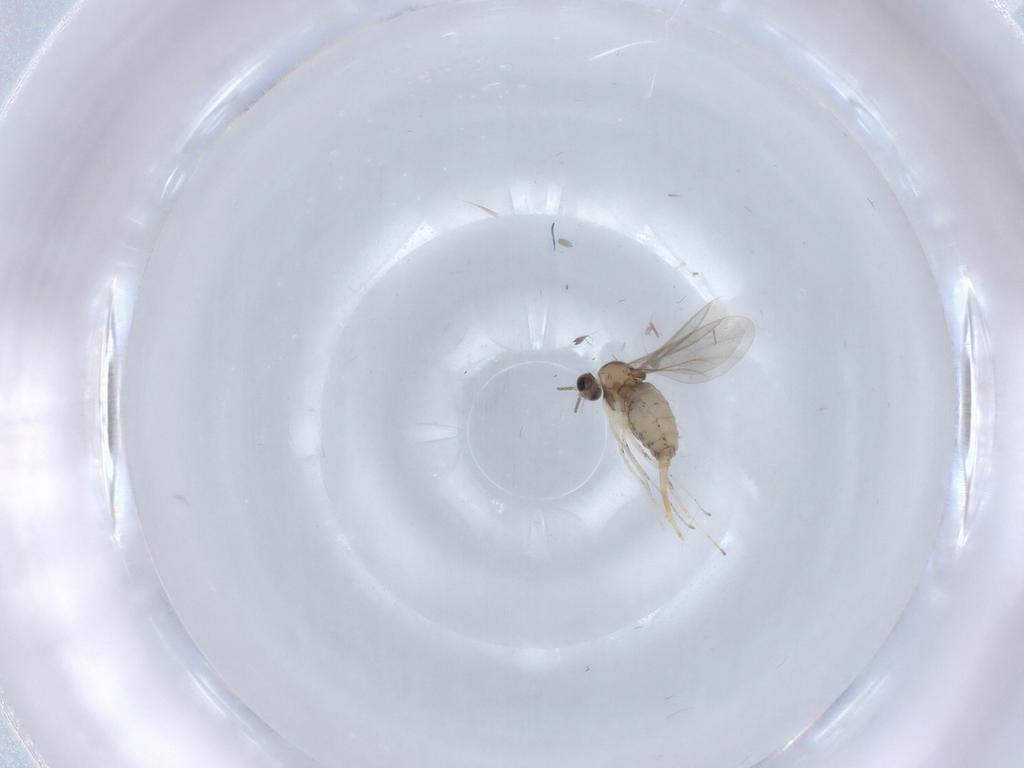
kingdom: Animalia
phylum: Arthropoda
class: Insecta
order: Diptera
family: Cecidomyiidae
